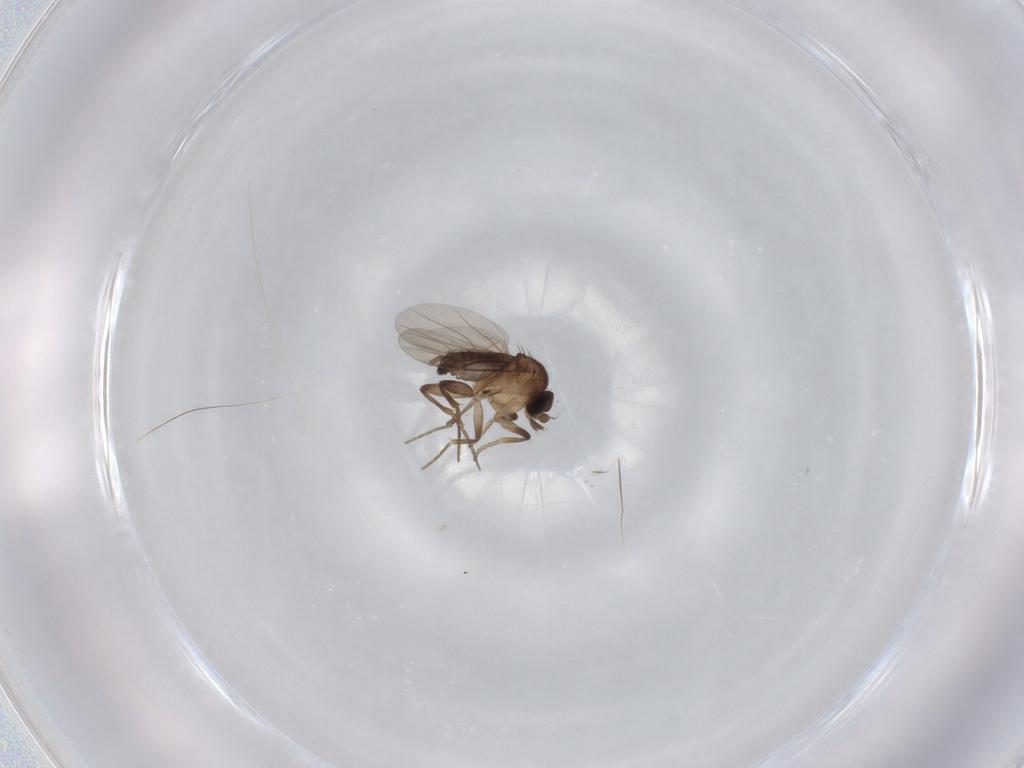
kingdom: Animalia
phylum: Arthropoda
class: Insecta
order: Diptera
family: Phoridae
